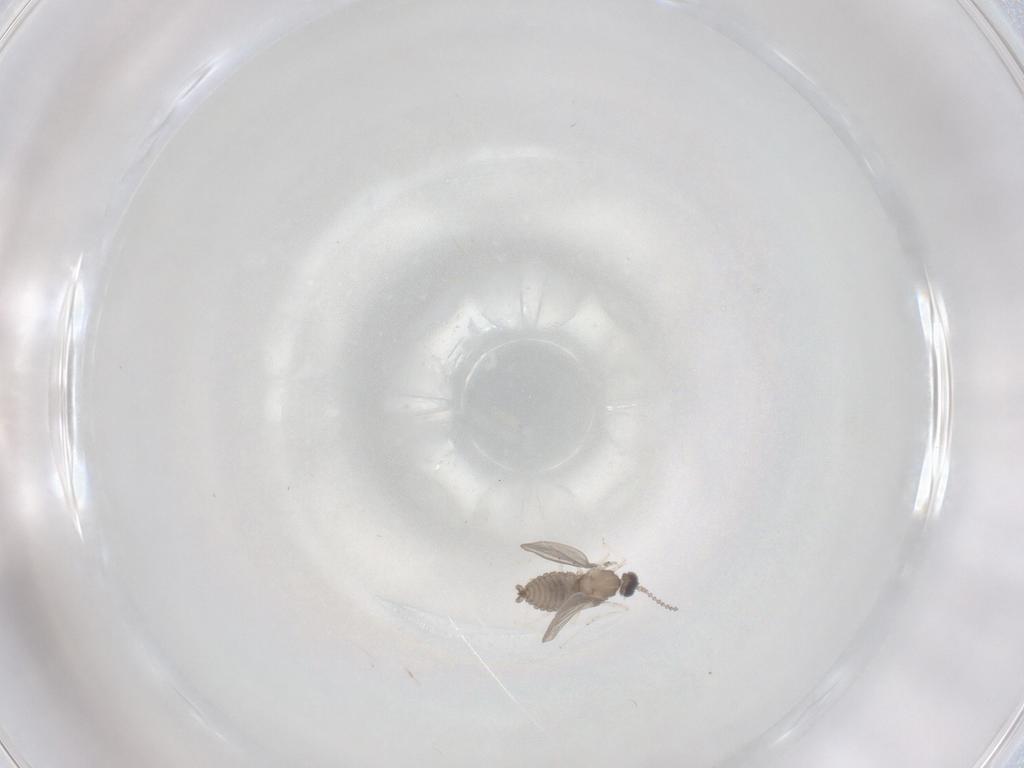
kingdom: Animalia
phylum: Arthropoda
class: Insecta
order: Diptera
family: Cecidomyiidae
